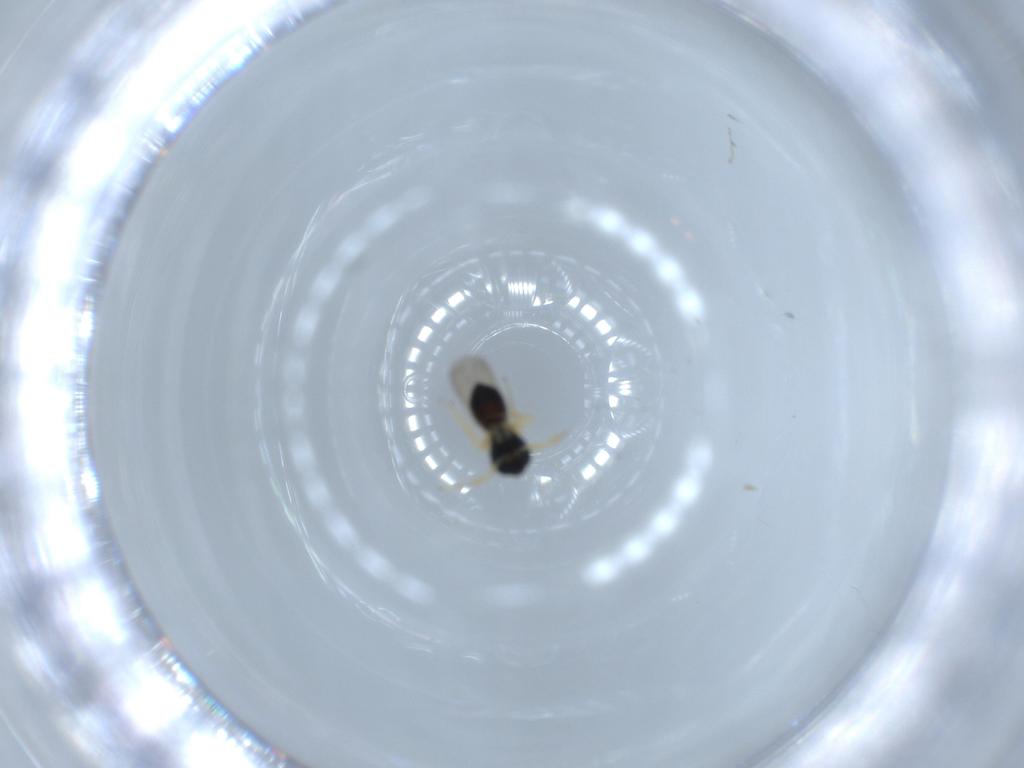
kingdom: Animalia
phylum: Arthropoda
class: Insecta
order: Hymenoptera
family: Scelionidae
